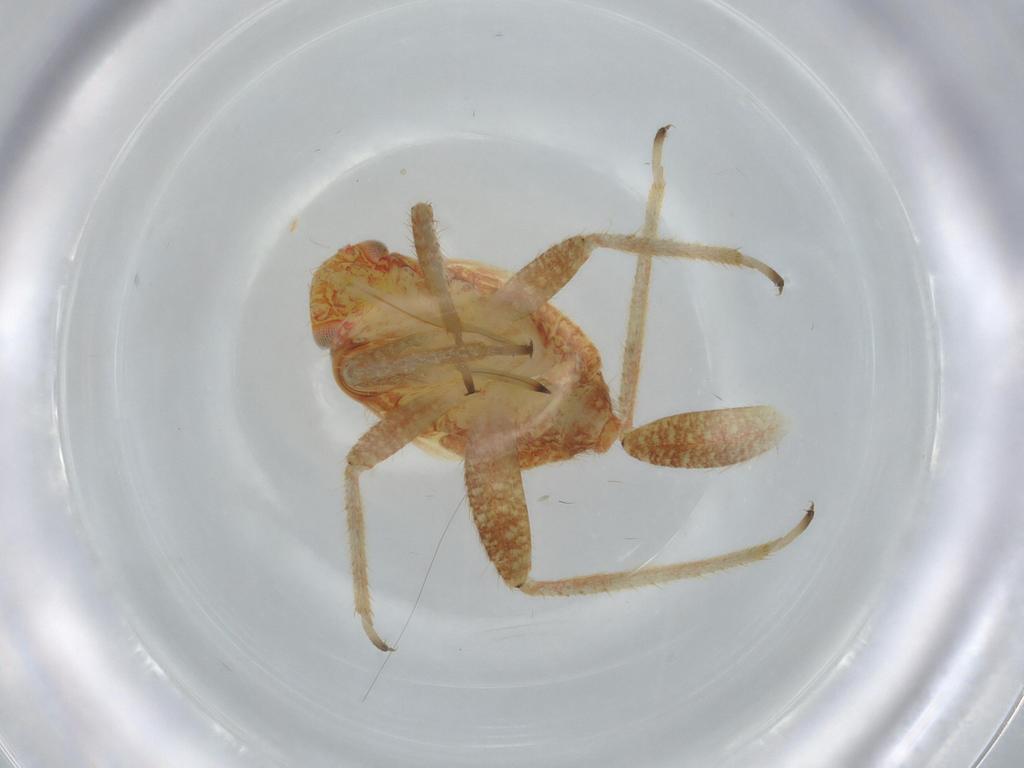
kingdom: Animalia
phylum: Arthropoda
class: Insecta
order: Hemiptera
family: Miridae
